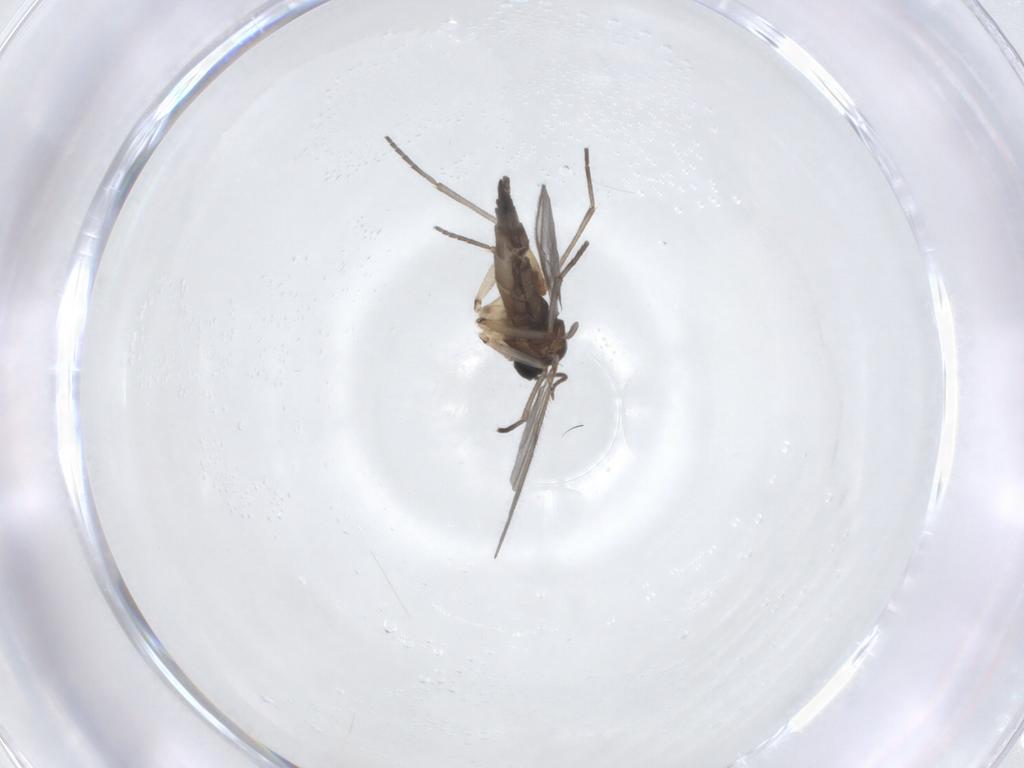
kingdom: Animalia
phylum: Arthropoda
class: Insecta
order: Diptera
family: Sciaridae
